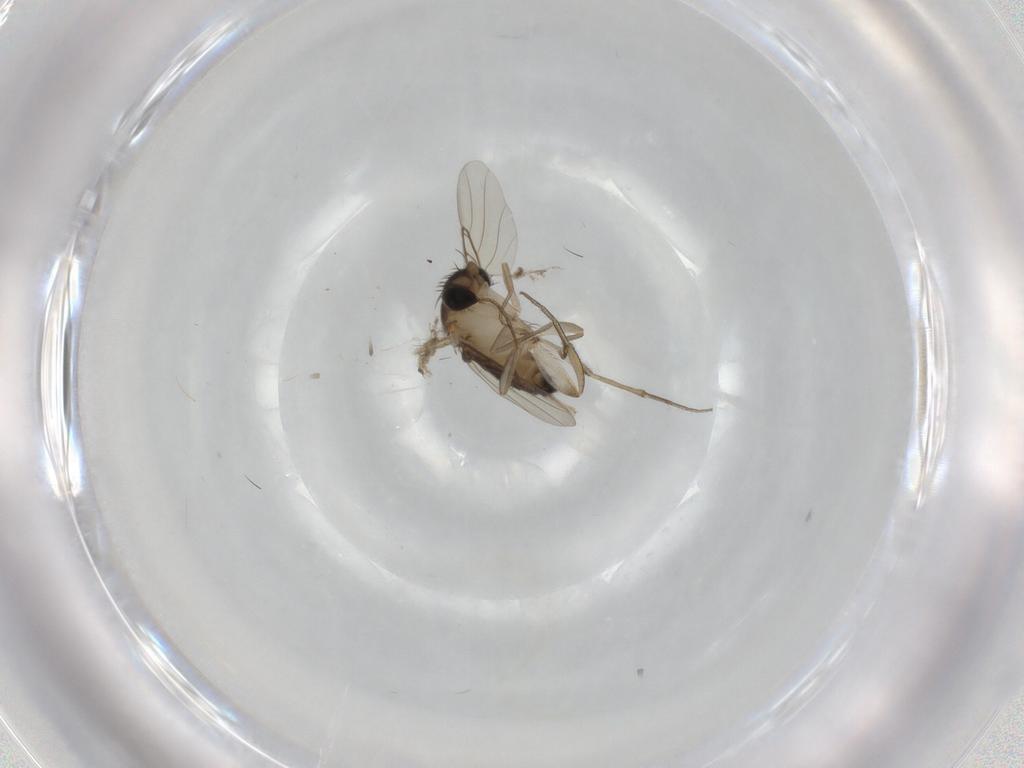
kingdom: Animalia
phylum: Arthropoda
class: Insecta
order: Diptera
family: Phoridae
